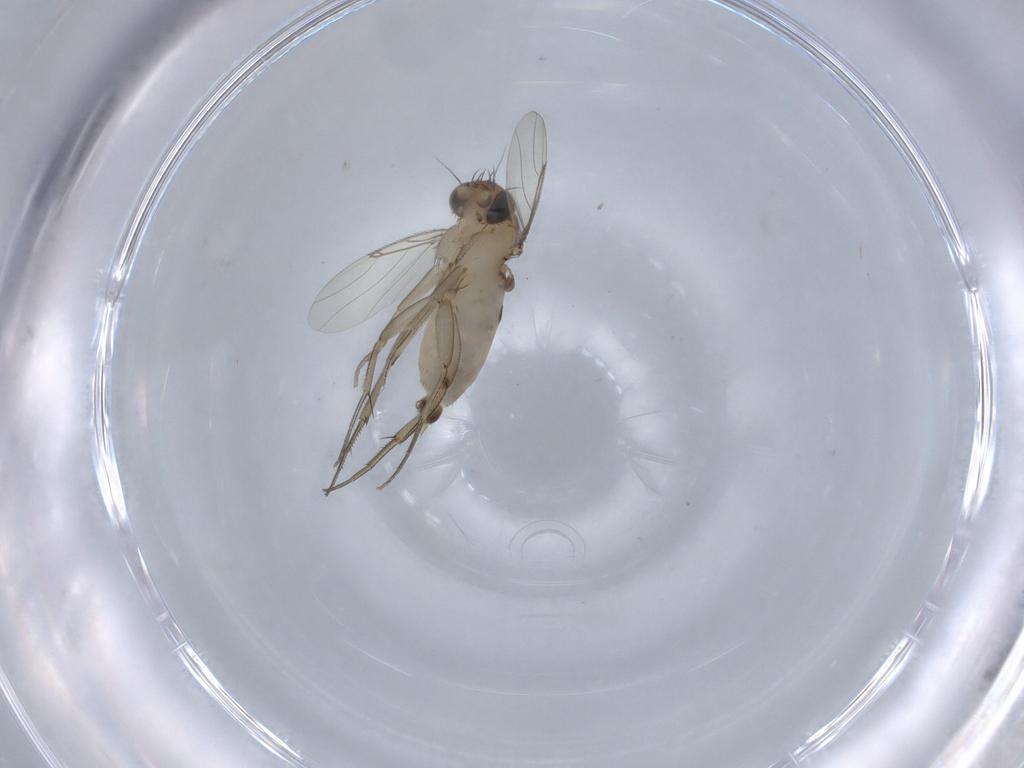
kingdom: Animalia
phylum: Arthropoda
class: Insecta
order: Diptera
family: Phoridae
